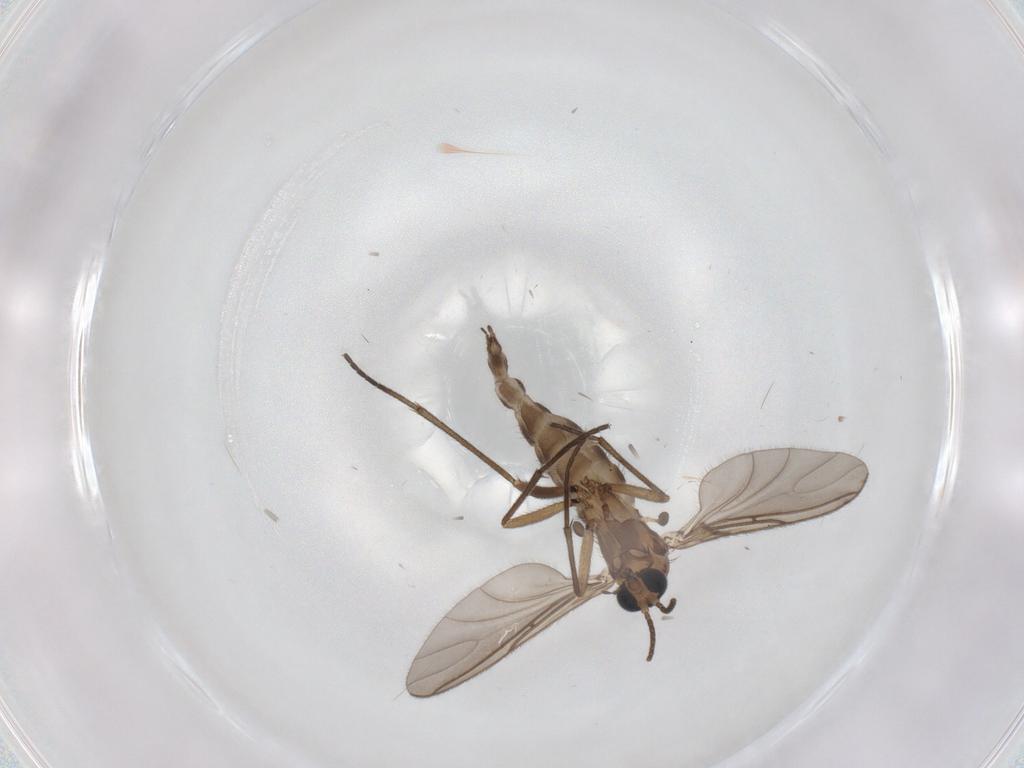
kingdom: Animalia
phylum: Arthropoda
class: Insecta
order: Diptera
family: Sciaridae
